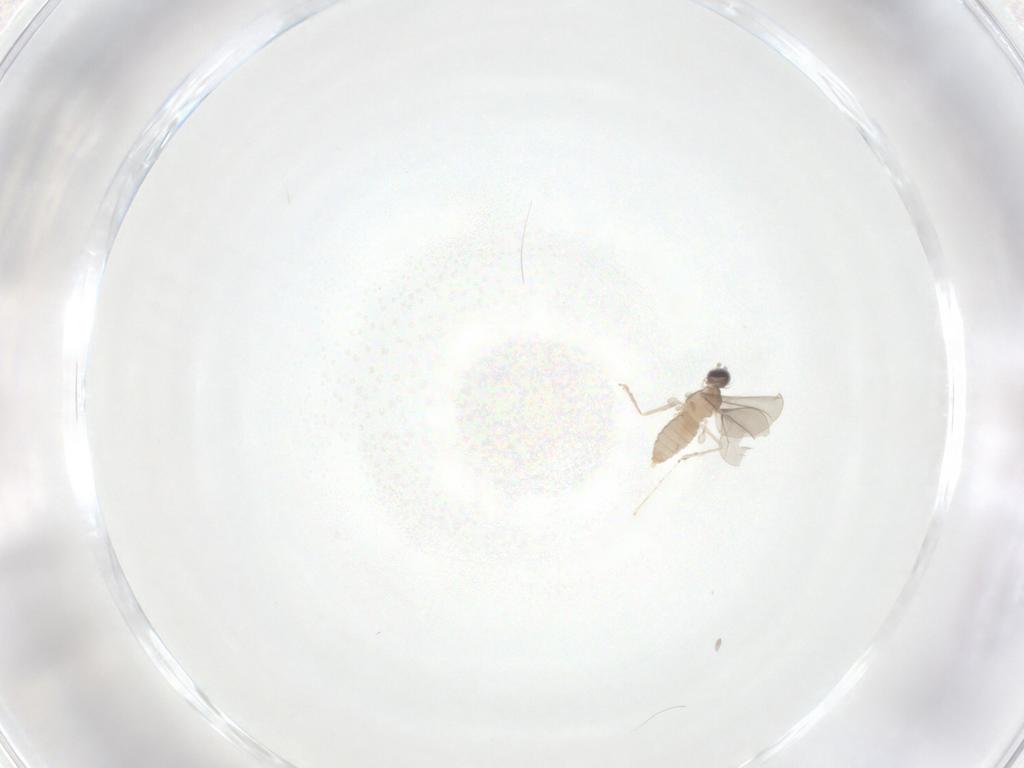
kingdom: Animalia
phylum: Arthropoda
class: Insecta
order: Diptera
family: Cecidomyiidae
